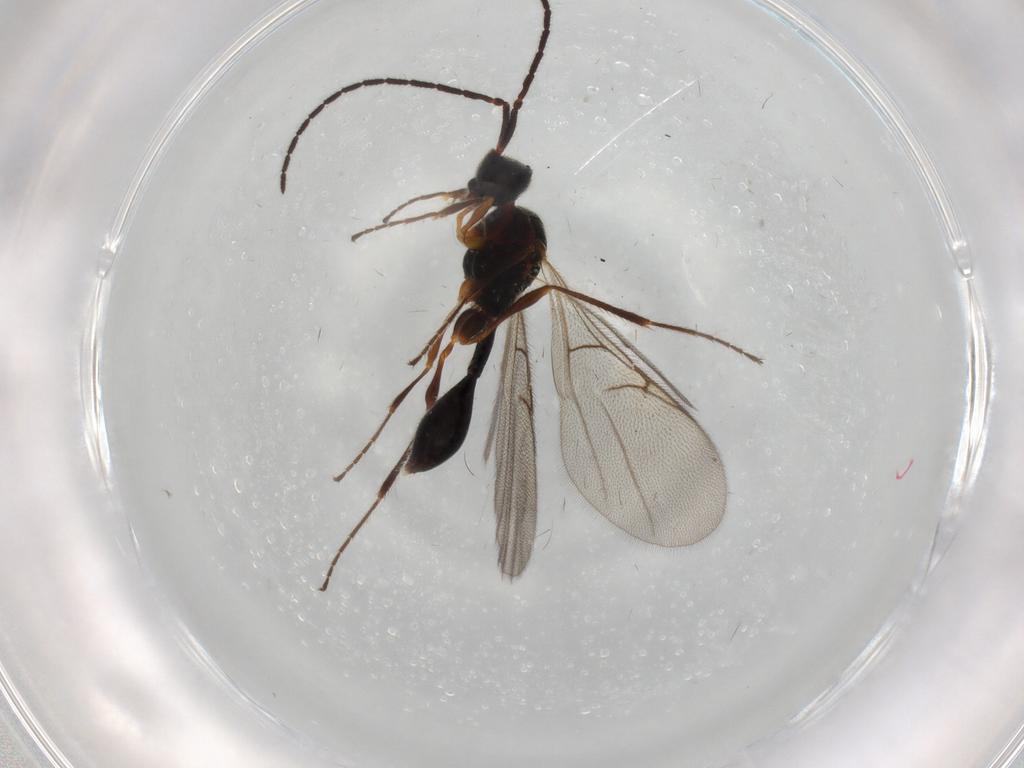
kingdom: Animalia
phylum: Arthropoda
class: Insecta
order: Hymenoptera
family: Diapriidae
